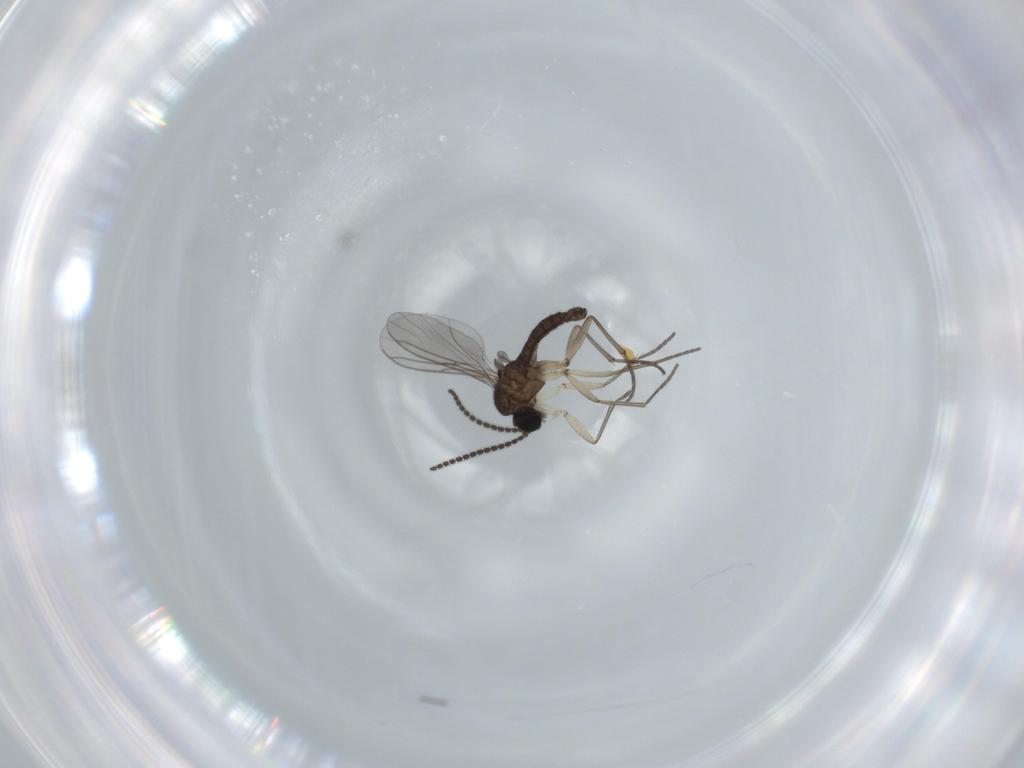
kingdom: Animalia
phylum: Arthropoda
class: Insecta
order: Diptera
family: Sciaridae
